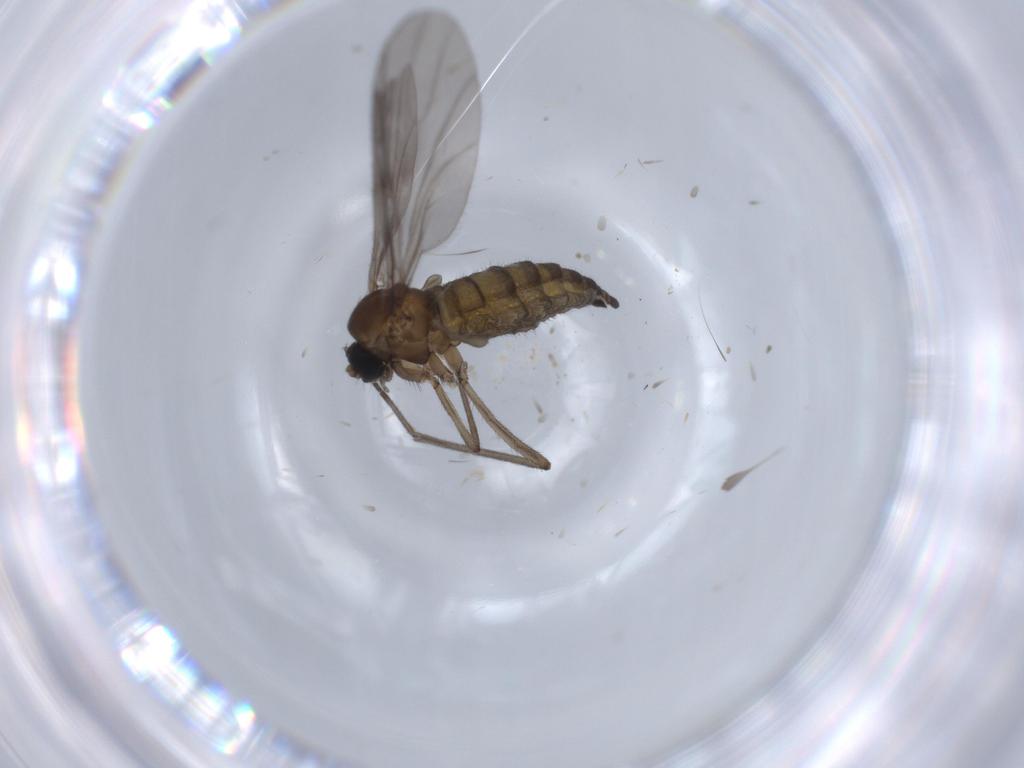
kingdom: Animalia
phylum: Arthropoda
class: Insecta
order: Diptera
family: Sciaridae
